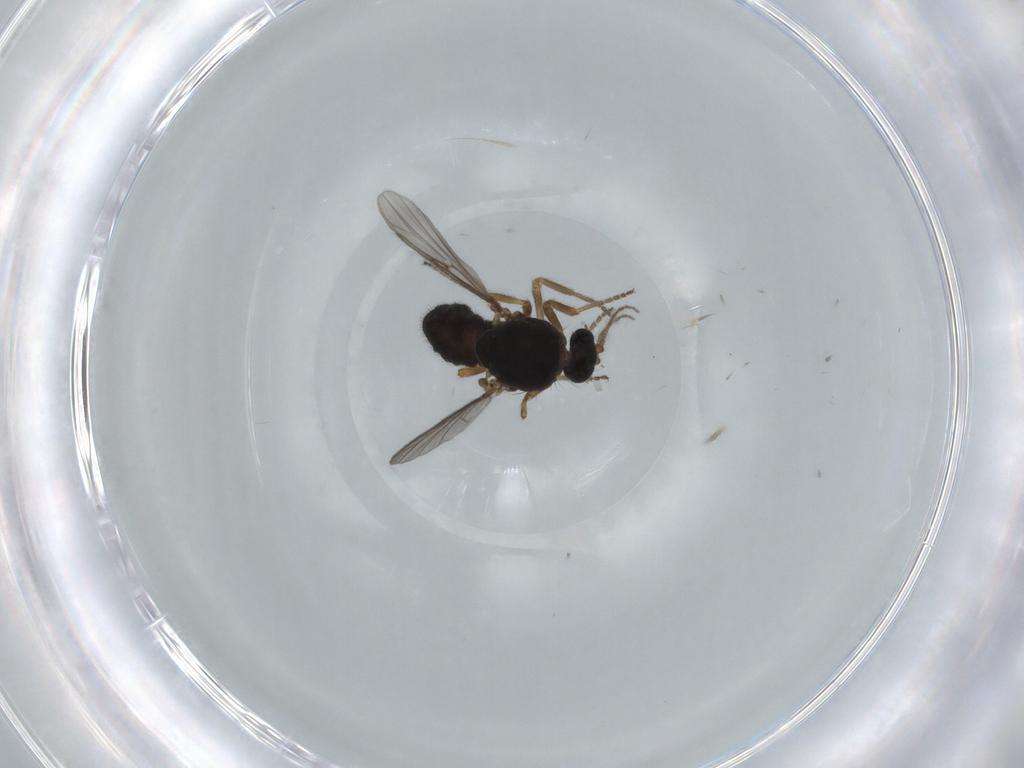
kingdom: Animalia
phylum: Arthropoda
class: Insecta
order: Diptera
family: Ceratopogonidae
